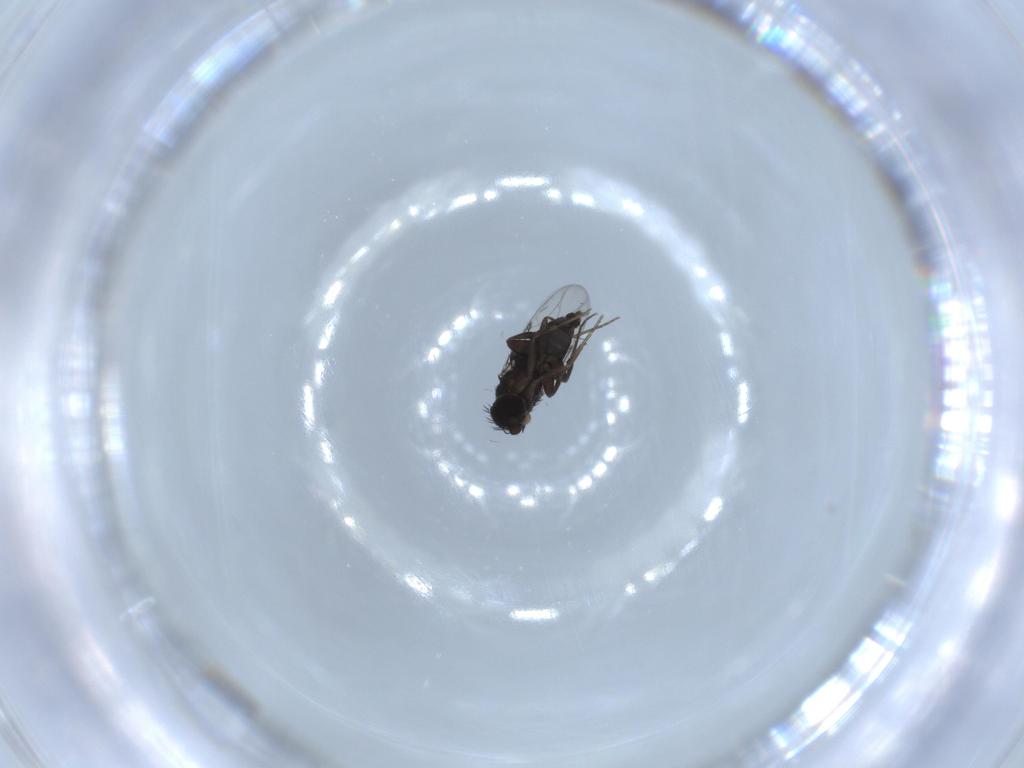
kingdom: Animalia
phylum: Arthropoda
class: Insecta
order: Diptera
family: Phoridae
